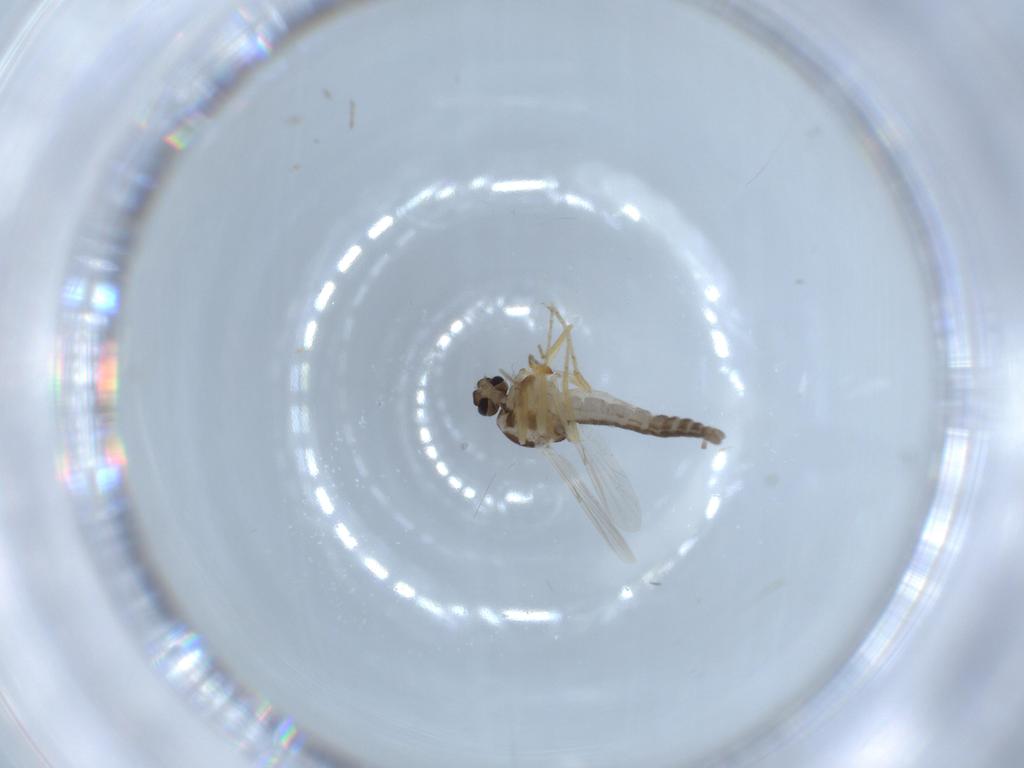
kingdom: Animalia
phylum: Arthropoda
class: Insecta
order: Diptera
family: Ceratopogonidae
